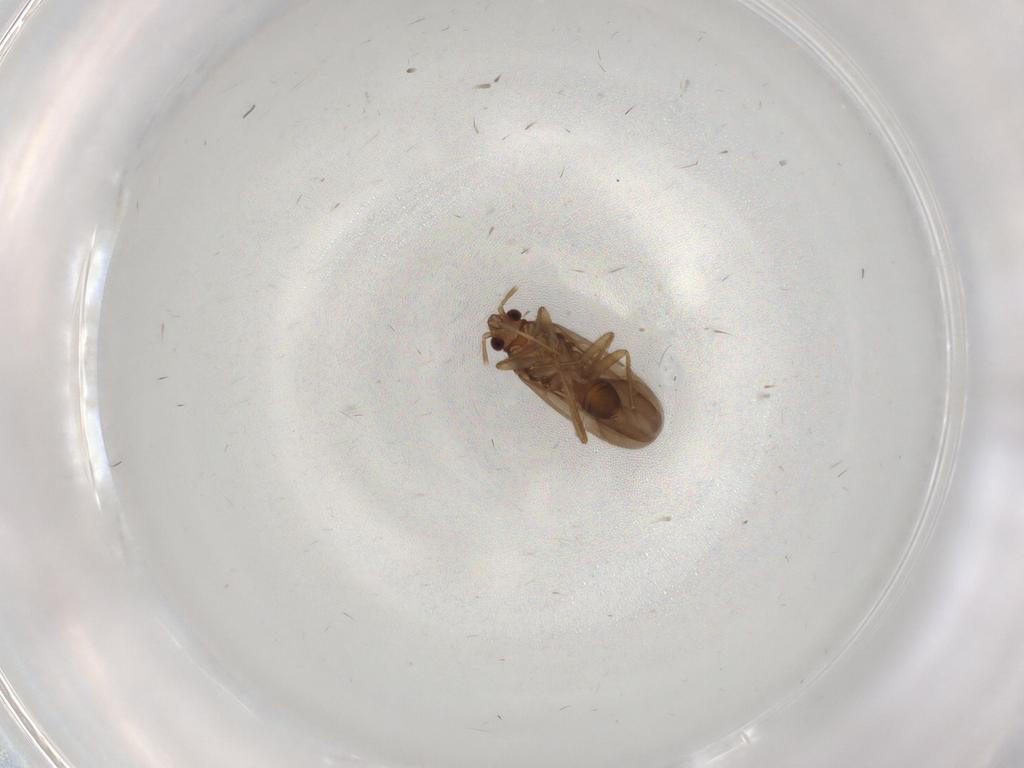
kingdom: Animalia
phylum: Arthropoda
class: Insecta
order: Hemiptera
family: Ceratocombidae
